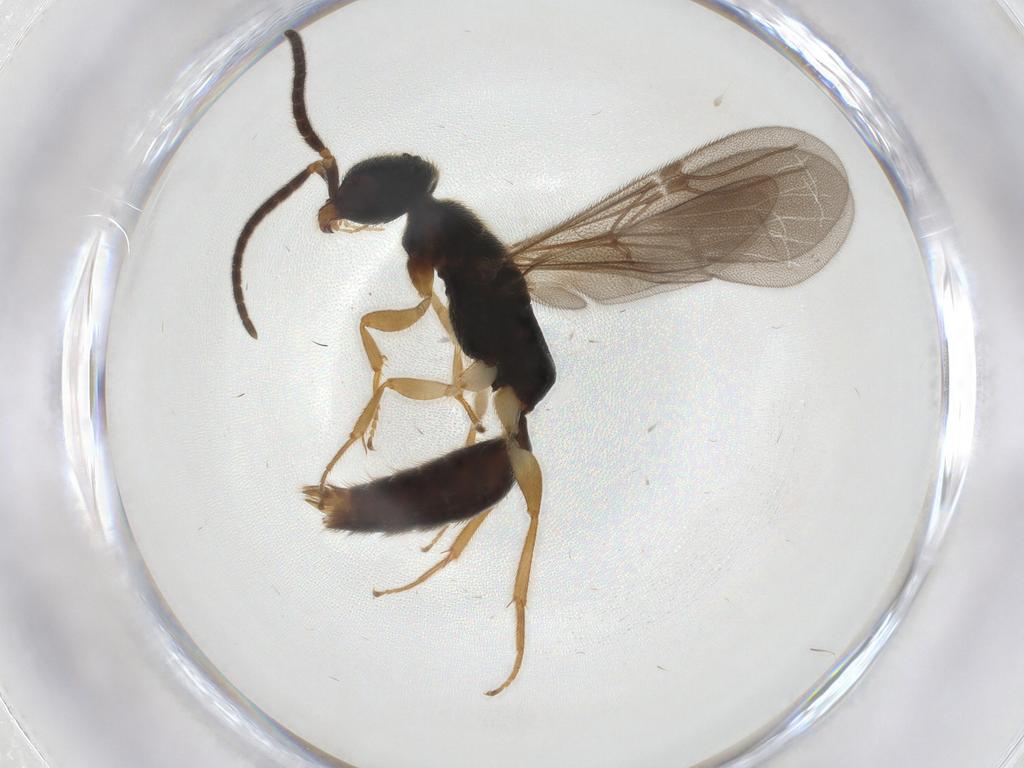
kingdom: Animalia
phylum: Arthropoda
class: Insecta
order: Hymenoptera
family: Bethylidae
